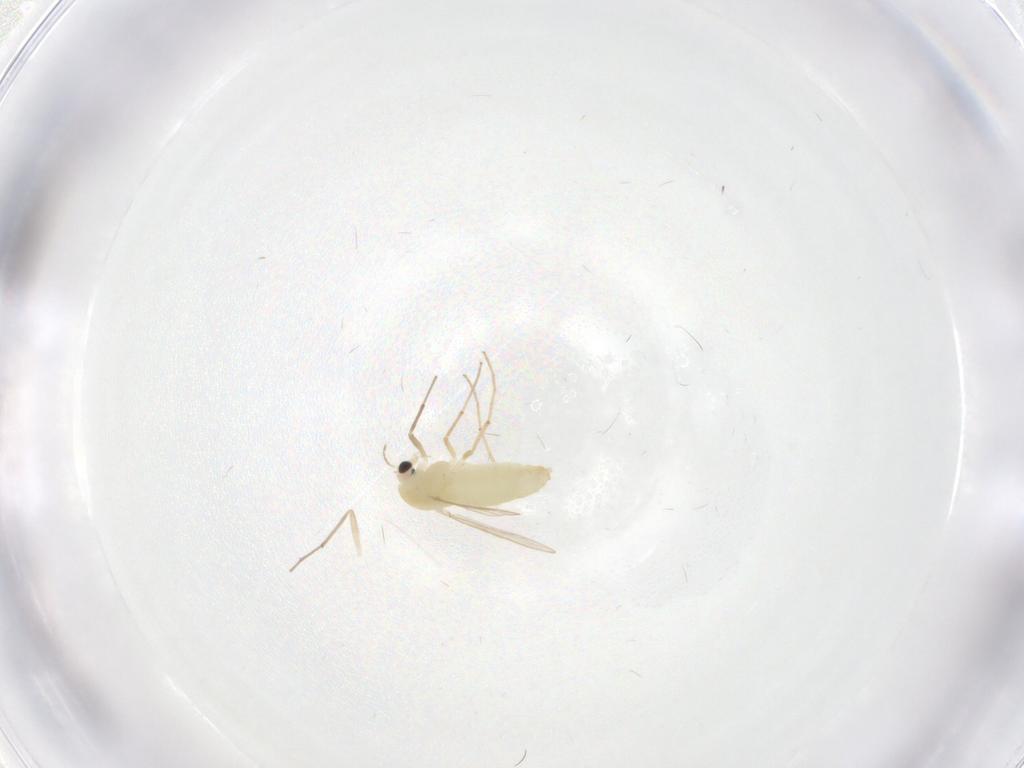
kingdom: Animalia
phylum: Arthropoda
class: Insecta
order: Diptera
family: Chironomidae
